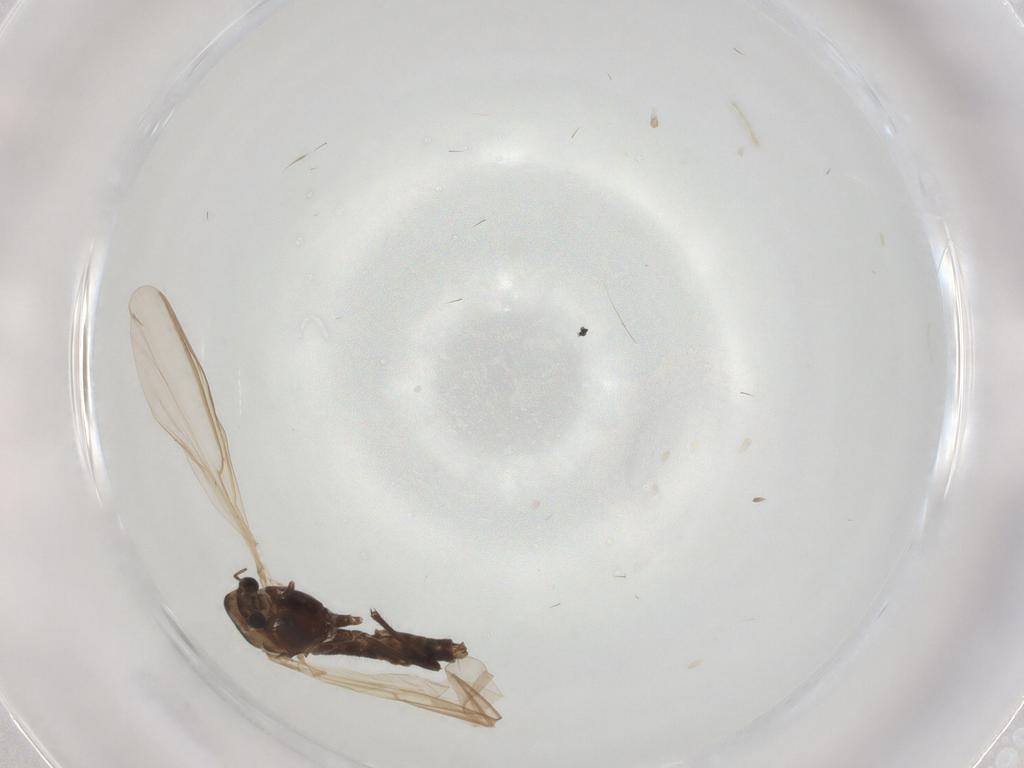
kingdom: Animalia
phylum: Arthropoda
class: Insecta
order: Diptera
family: Chironomidae
